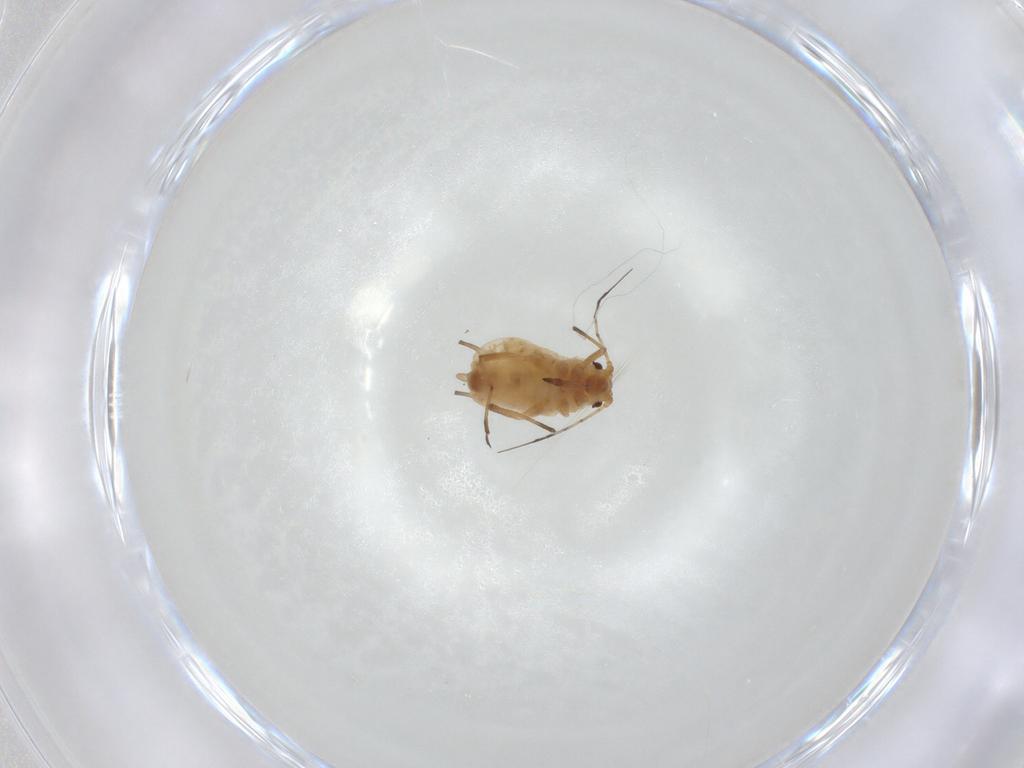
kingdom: Animalia
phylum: Arthropoda
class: Insecta
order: Hemiptera
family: Aphididae
